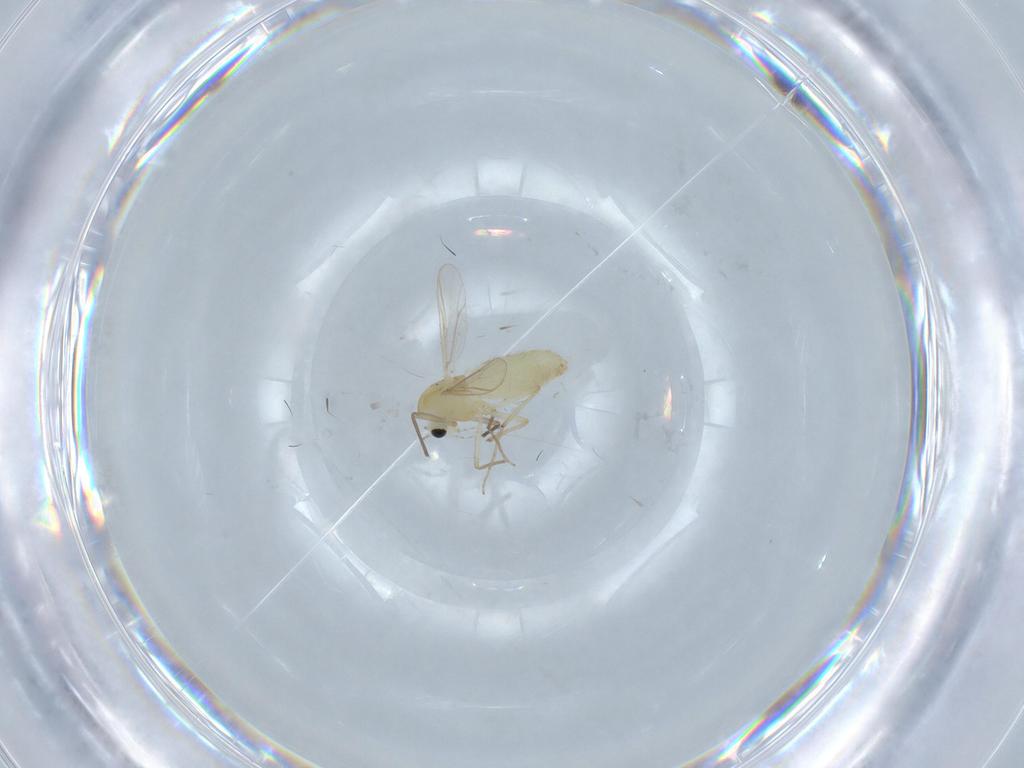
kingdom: Animalia
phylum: Arthropoda
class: Insecta
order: Diptera
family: Chironomidae
